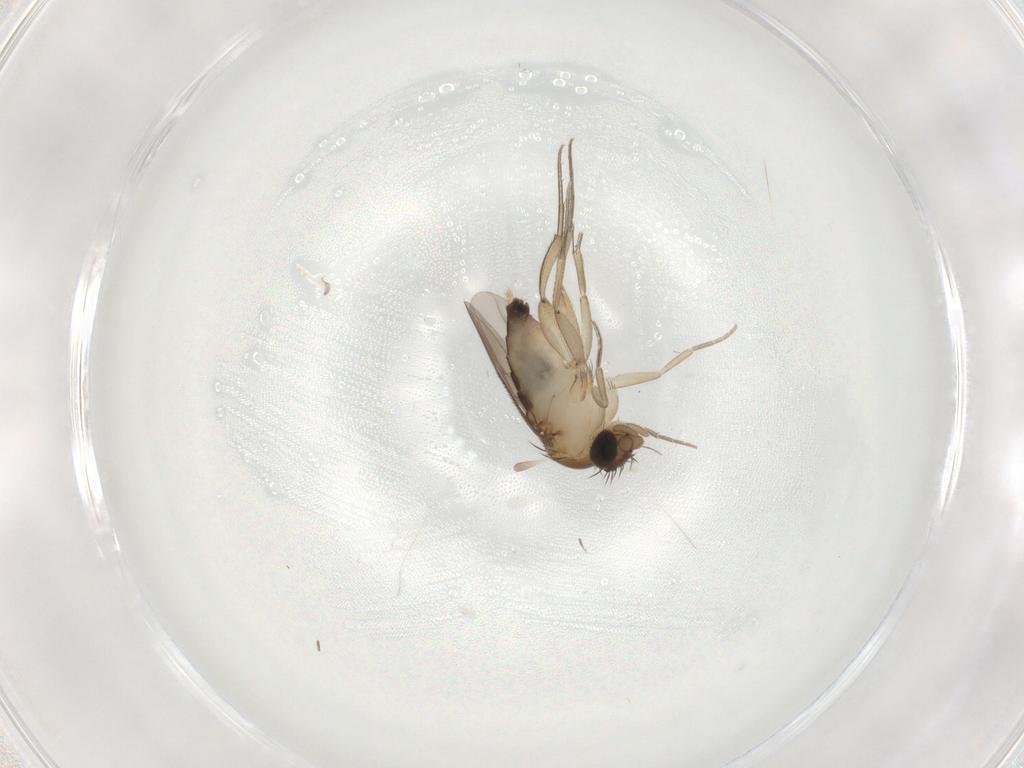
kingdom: Animalia
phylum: Arthropoda
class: Insecta
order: Diptera
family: Phoridae
